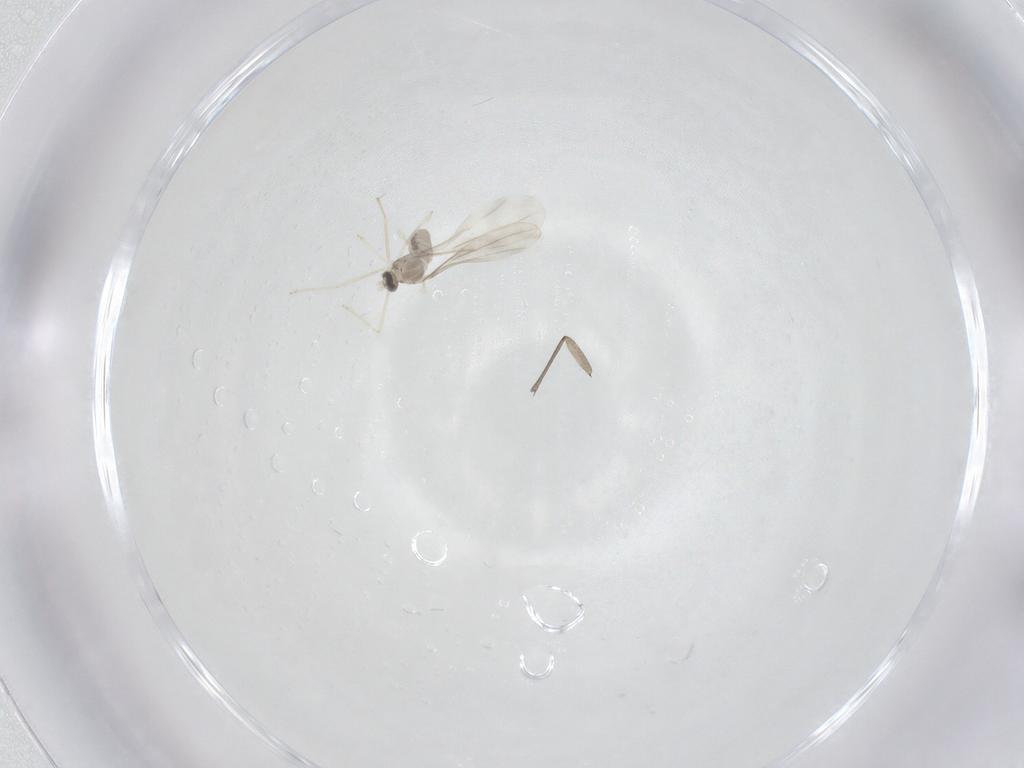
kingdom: Animalia
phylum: Arthropoda
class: Insecta
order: Diptera
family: Sciaridae
